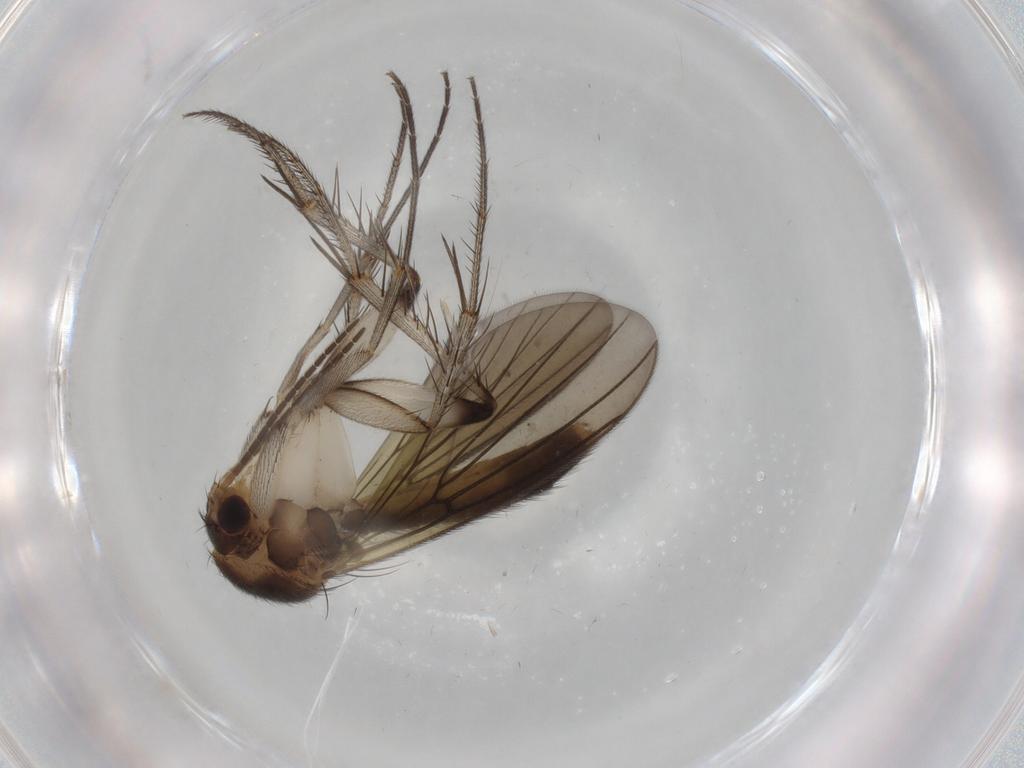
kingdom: Animalia
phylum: Arthropoda
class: Insecta
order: Diptera
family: Mycetophilidae
